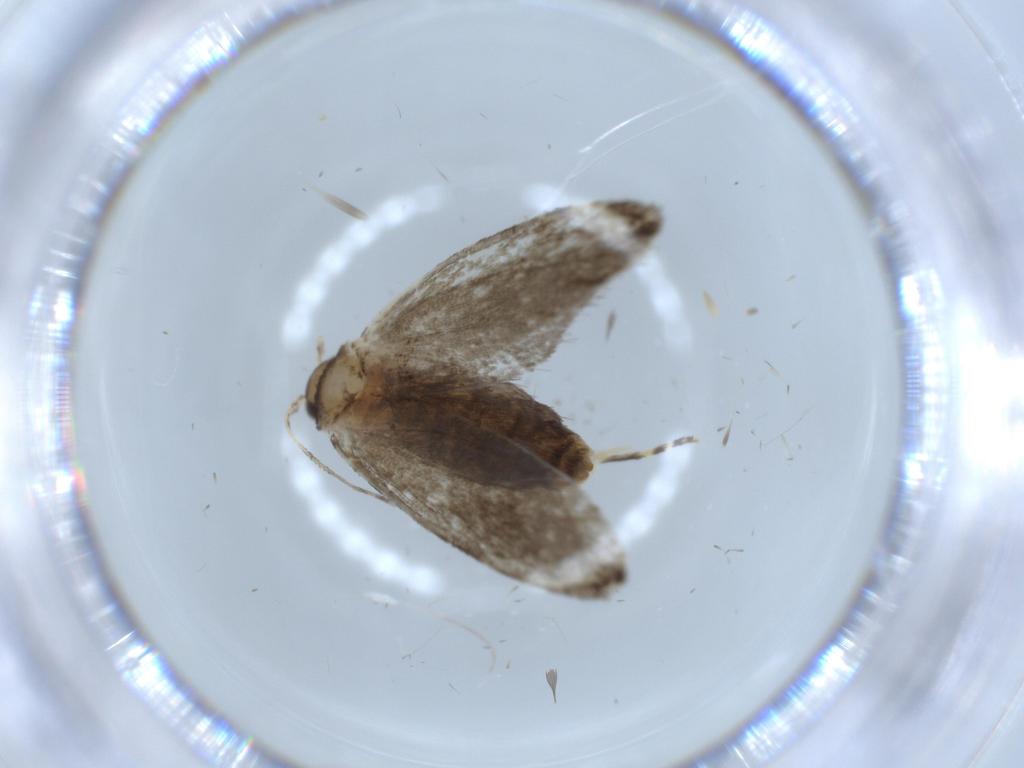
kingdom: Animalia
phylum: Arthropoda
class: Insecta
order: Lepidoptera
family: Tineidae
